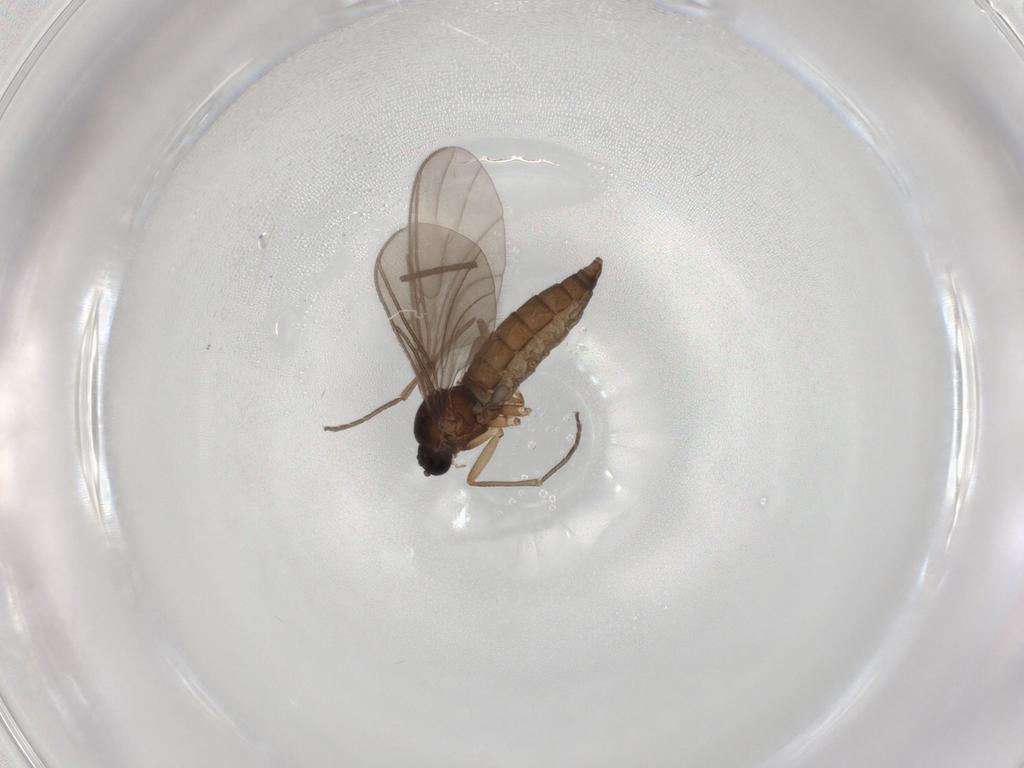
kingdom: Animalia
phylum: Arthropoda
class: Insecta
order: Diptera
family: Sciaridae
